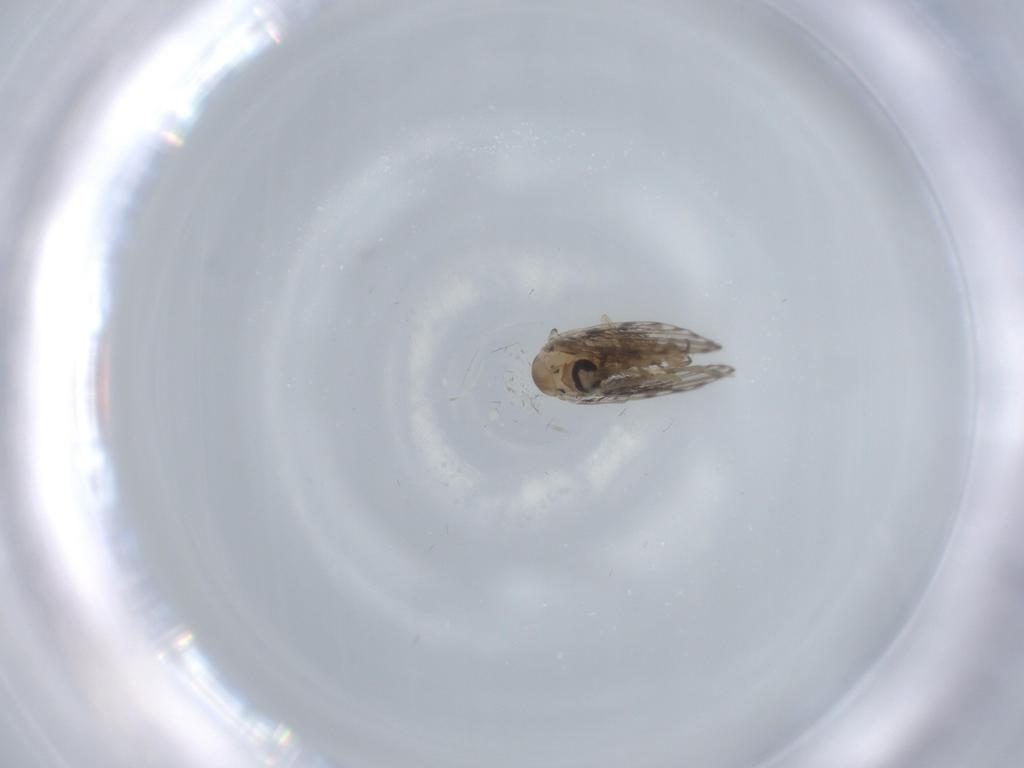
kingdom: Animalia
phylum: Arthropoda
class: Insecta
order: Diptera
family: Psychodidae
